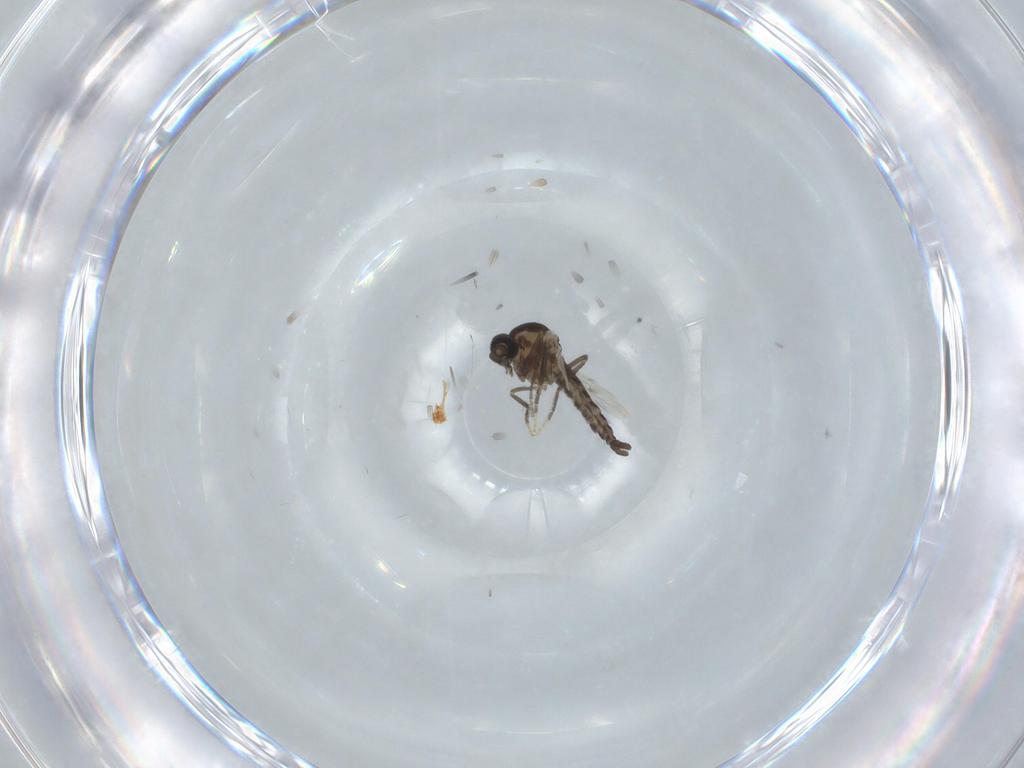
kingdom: Animalia
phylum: Arthropoda
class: Insecta
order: Diptera
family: Ceratopogonidae
